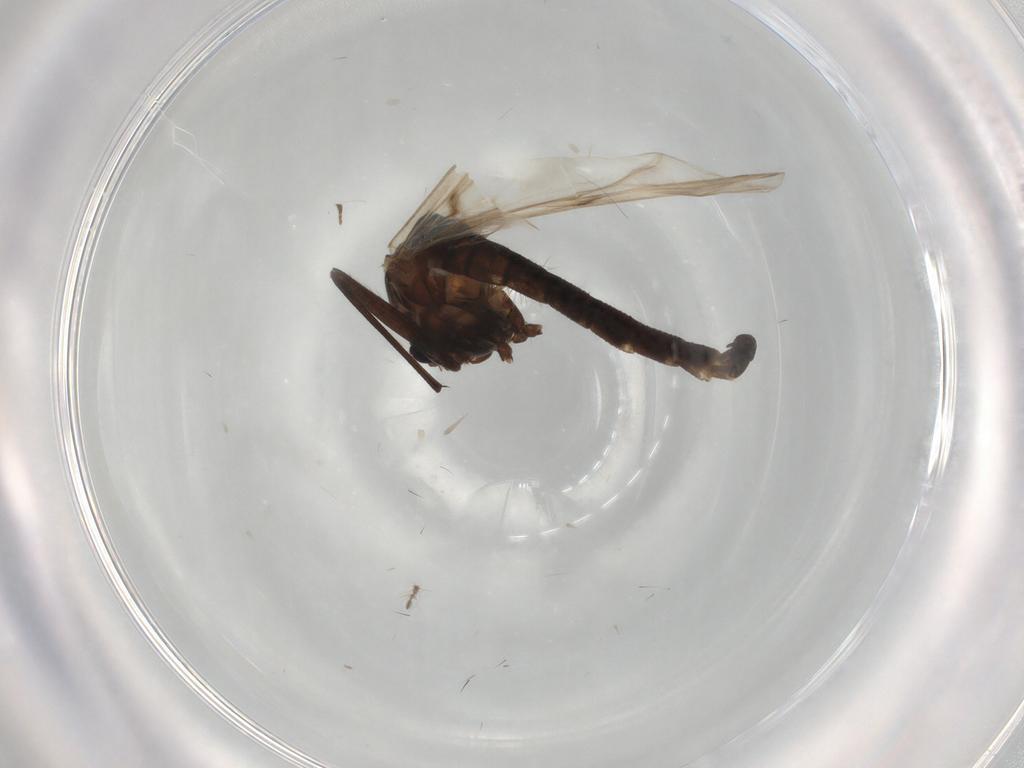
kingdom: Animalia
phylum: Arthropoda
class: Insecta
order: Diptera
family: Chironomidae
